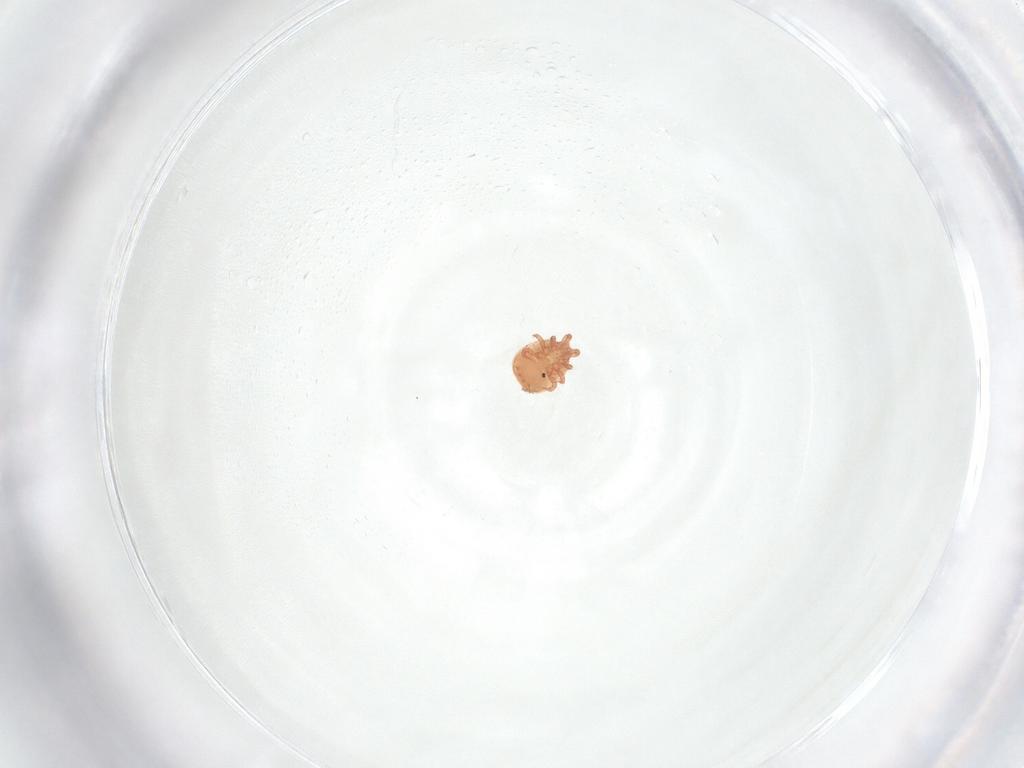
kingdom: Animalia
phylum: Arthropoda
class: Arachnida
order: Mesostigmata
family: Zerconidae
